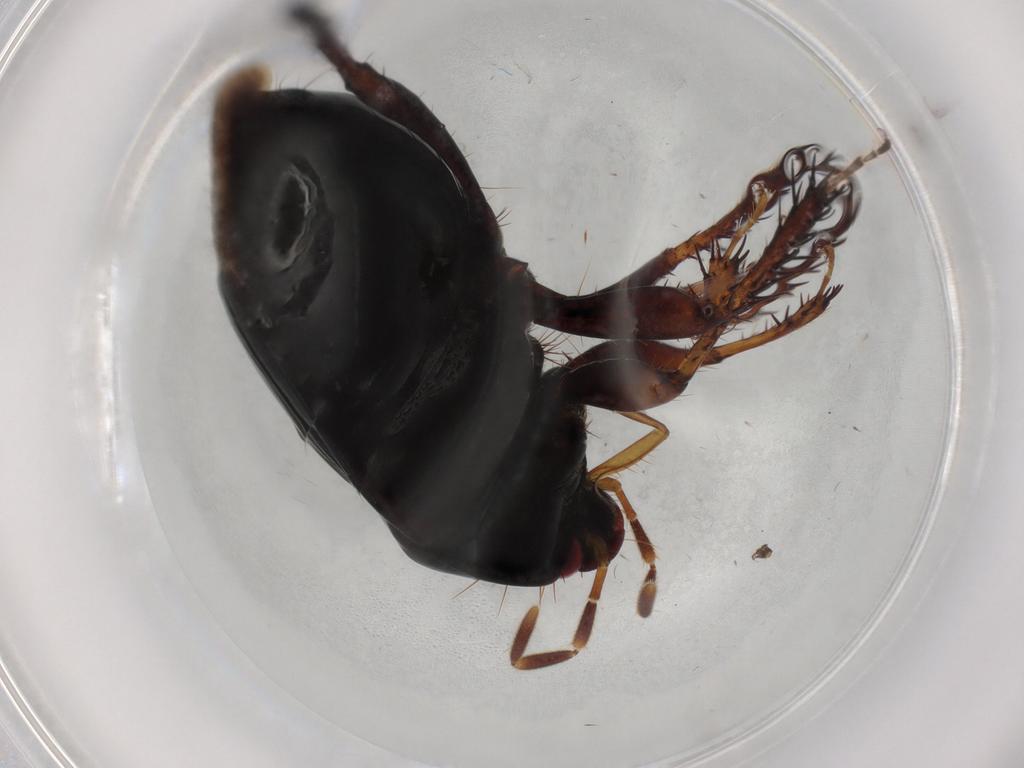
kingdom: Animalia
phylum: Arthropoda
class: Insecta
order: Hemiptera
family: Cydnidae
